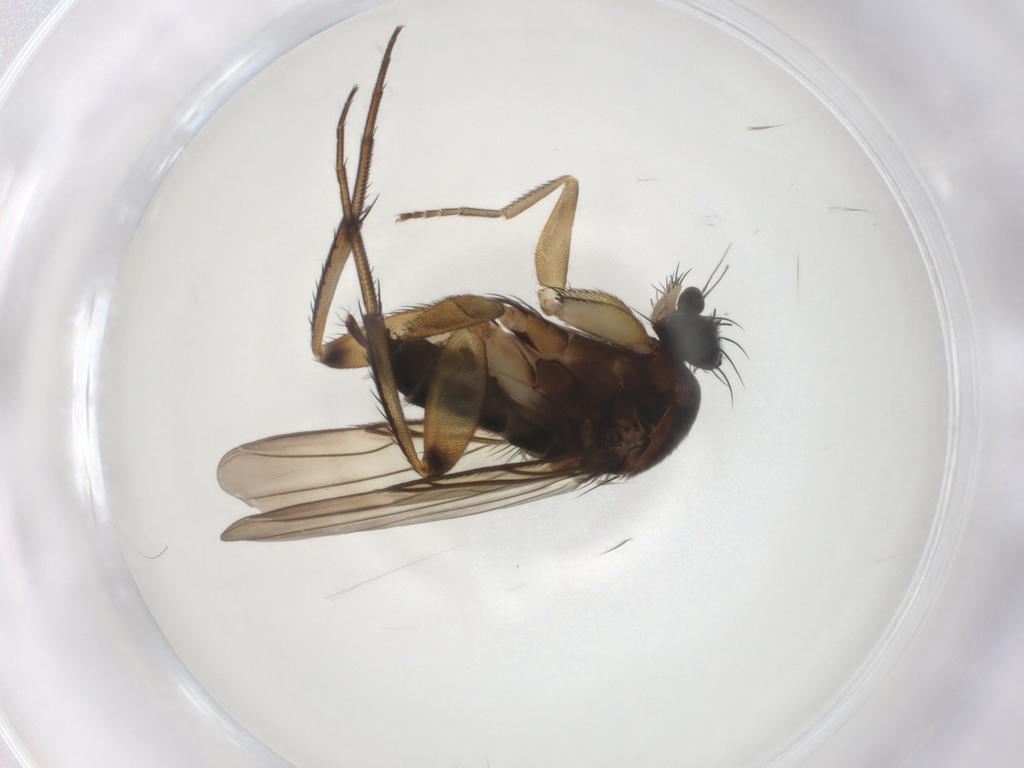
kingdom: Animalia
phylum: Arthropoda
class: Insecta
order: Diptera
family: Phoridae
